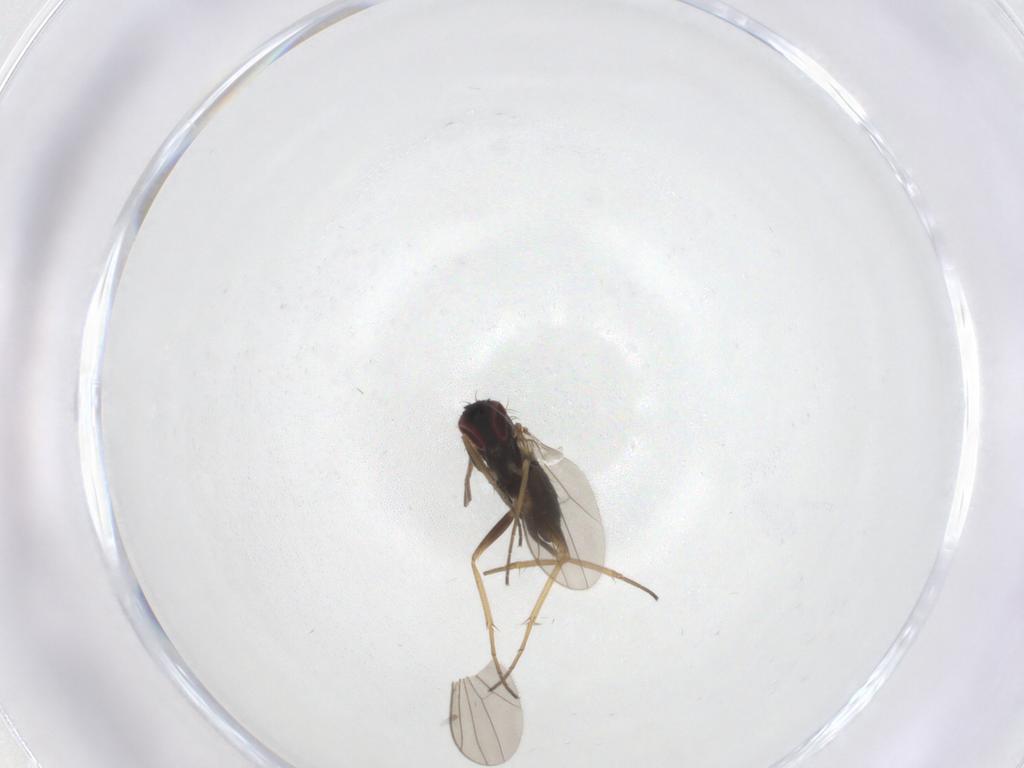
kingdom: Animalia
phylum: Arthropoda
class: Insecta
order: Diptera
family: Dolichopodidae
